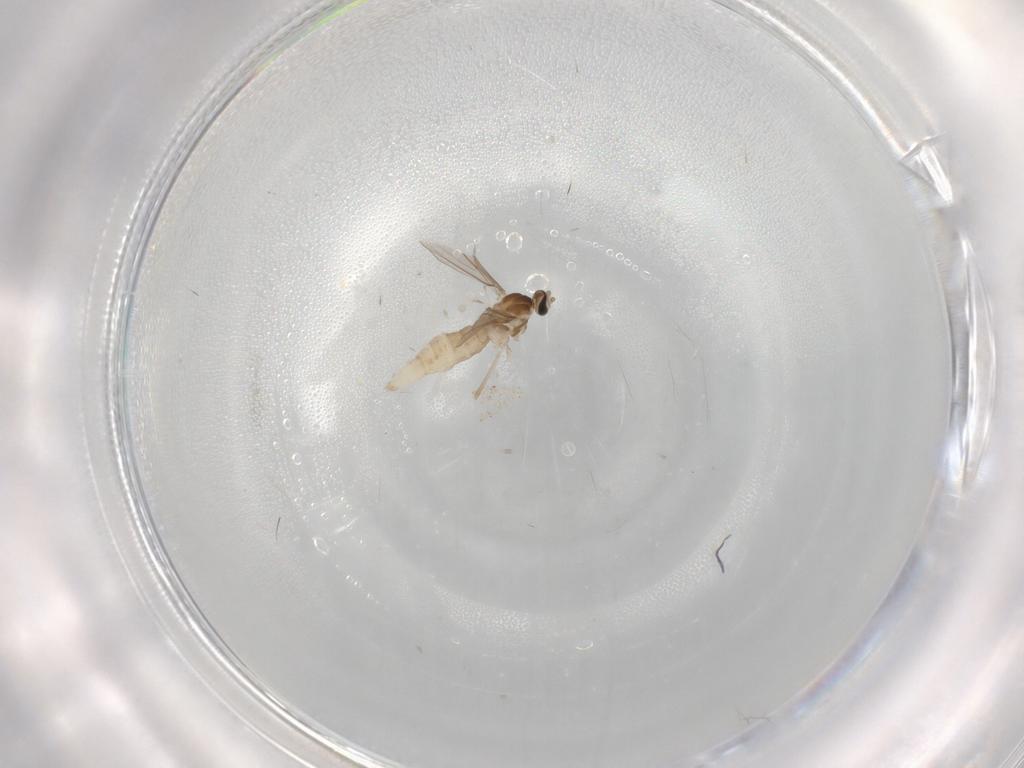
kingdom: Animalia
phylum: Arthropoda
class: Insecta
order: Diptera
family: Cecidomyiidae
